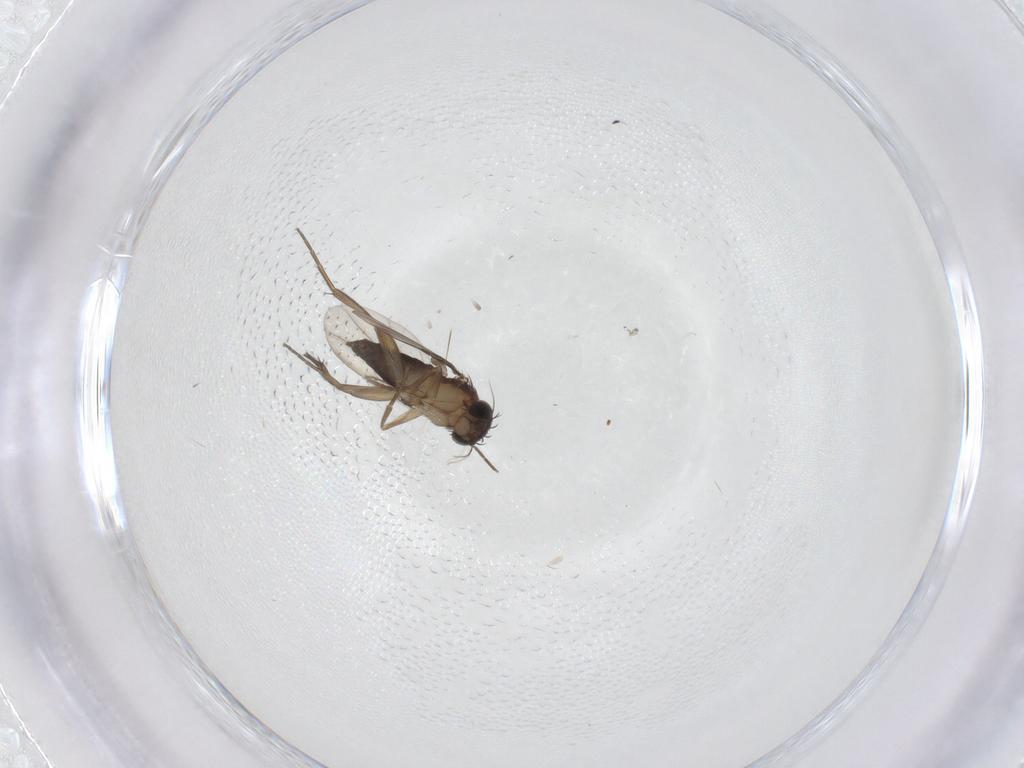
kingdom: Animalia
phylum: Arthropoda
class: Insecta
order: Diptera
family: Phoridae
